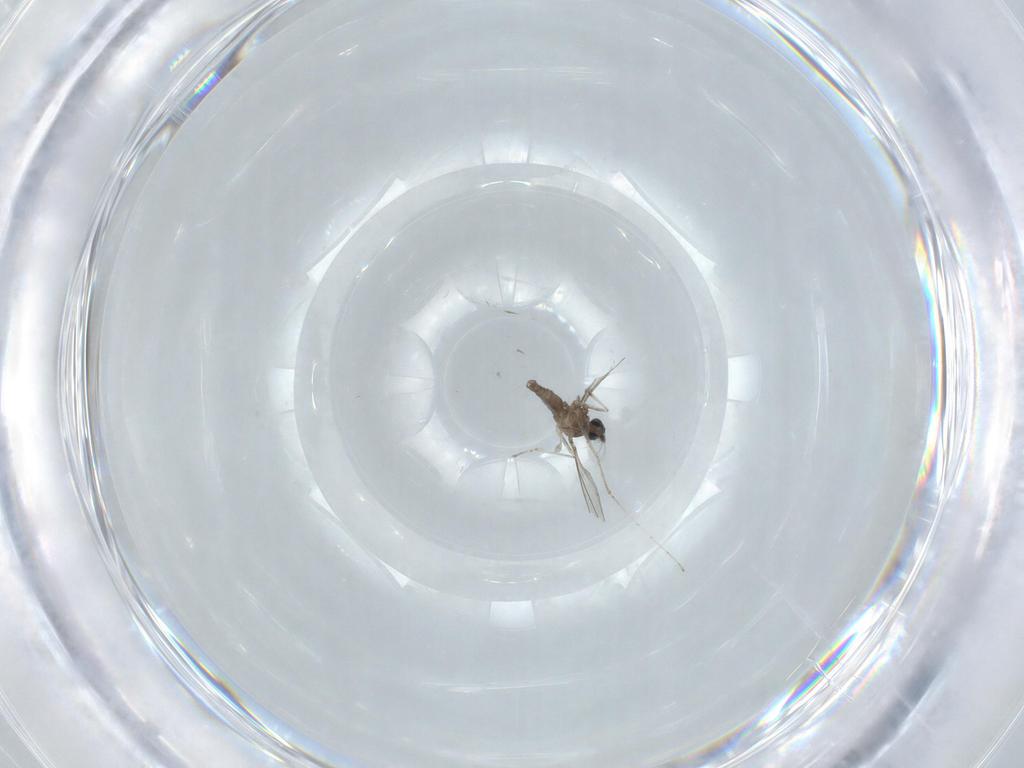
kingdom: Animalia
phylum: Arthropoda
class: Insecta
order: Diptera
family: Cecidomyiidae
